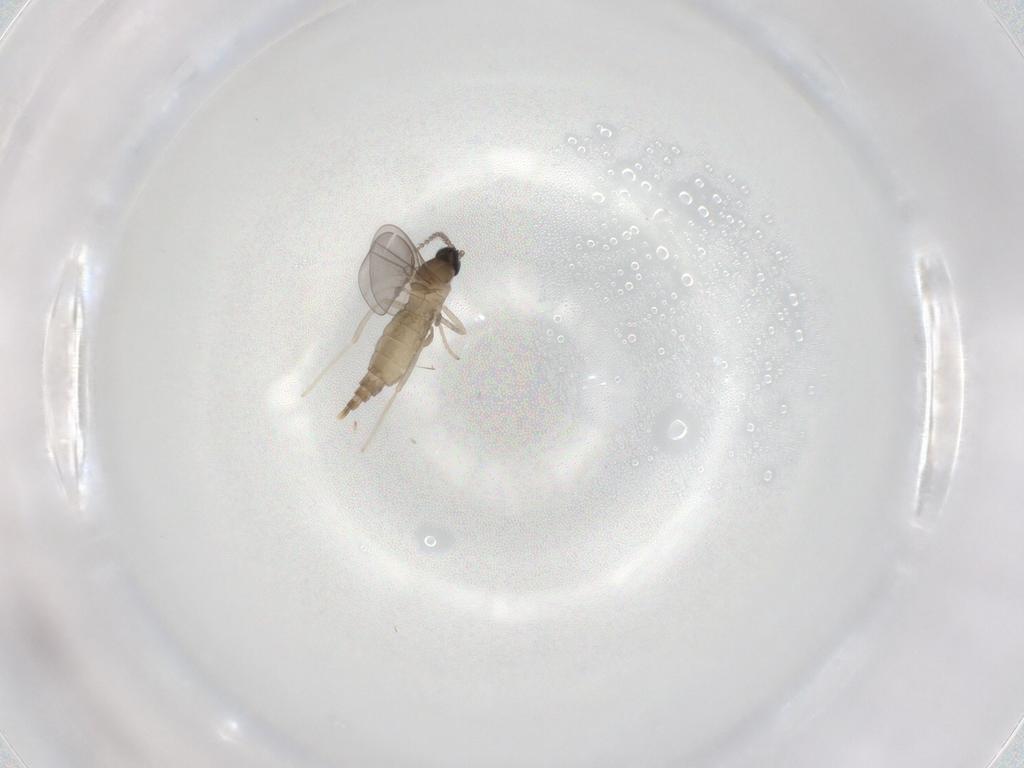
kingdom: Animalia
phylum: Arthropoda
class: Insecta
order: Diptera
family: Cecidomyiidae
